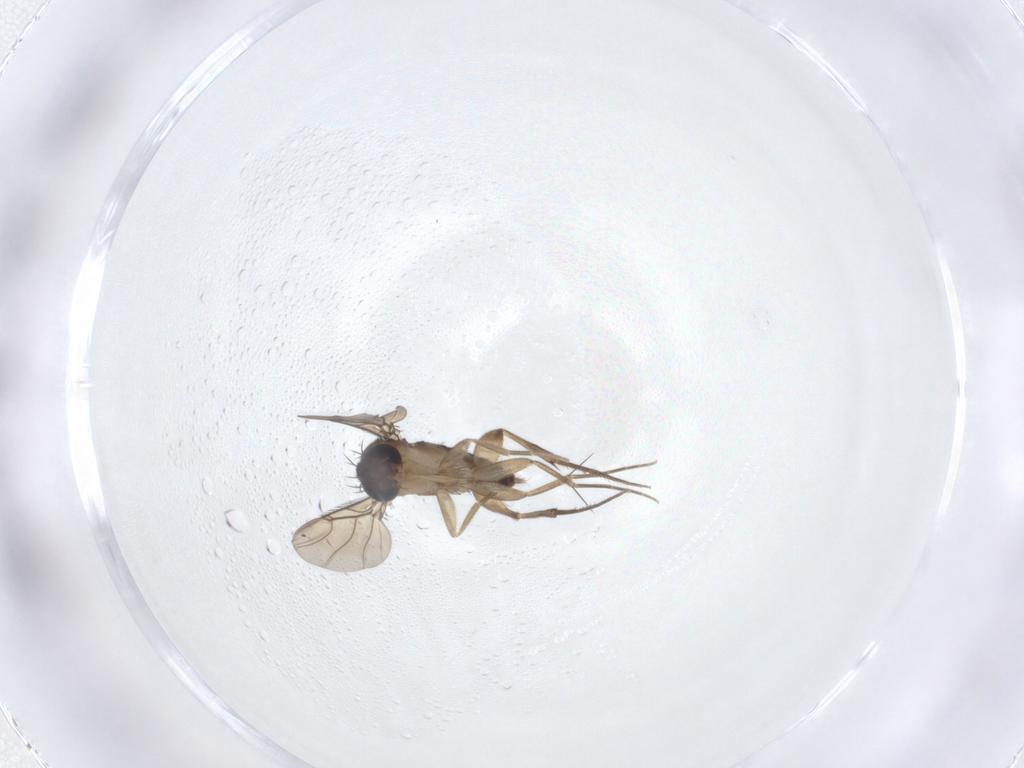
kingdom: Animalia
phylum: Arthropoda
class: Insecta
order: Diptera
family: Phoridae
